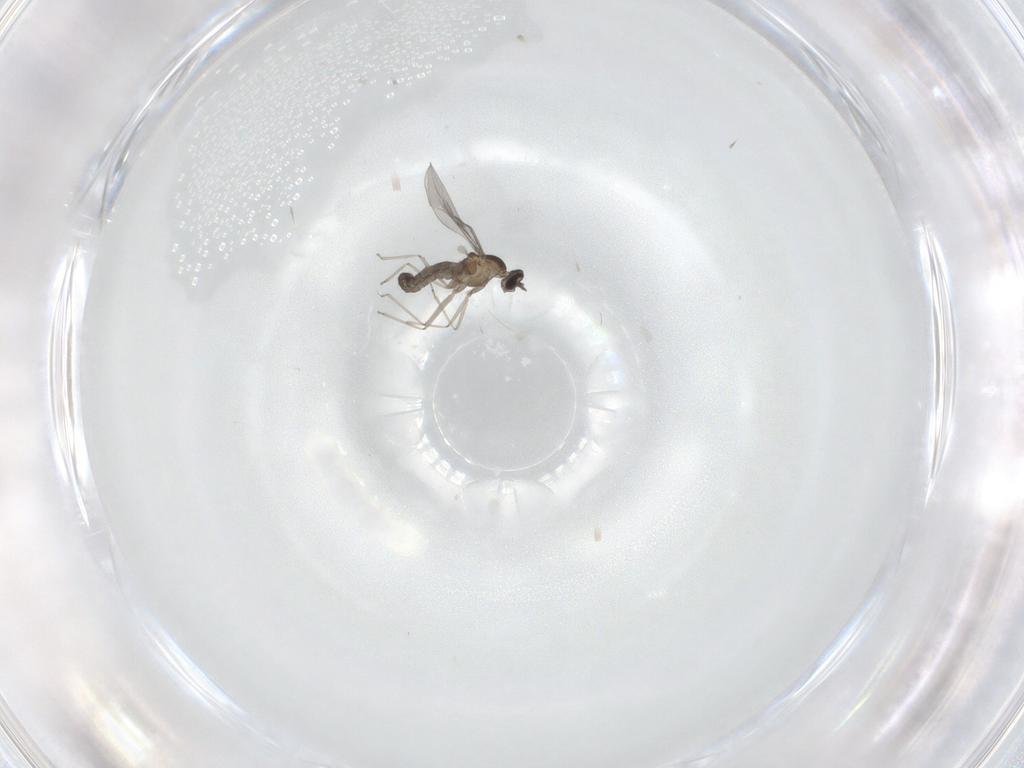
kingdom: Animalia
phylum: Arthropoda
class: Insecta
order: Diptera
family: Cecidomyiidae
